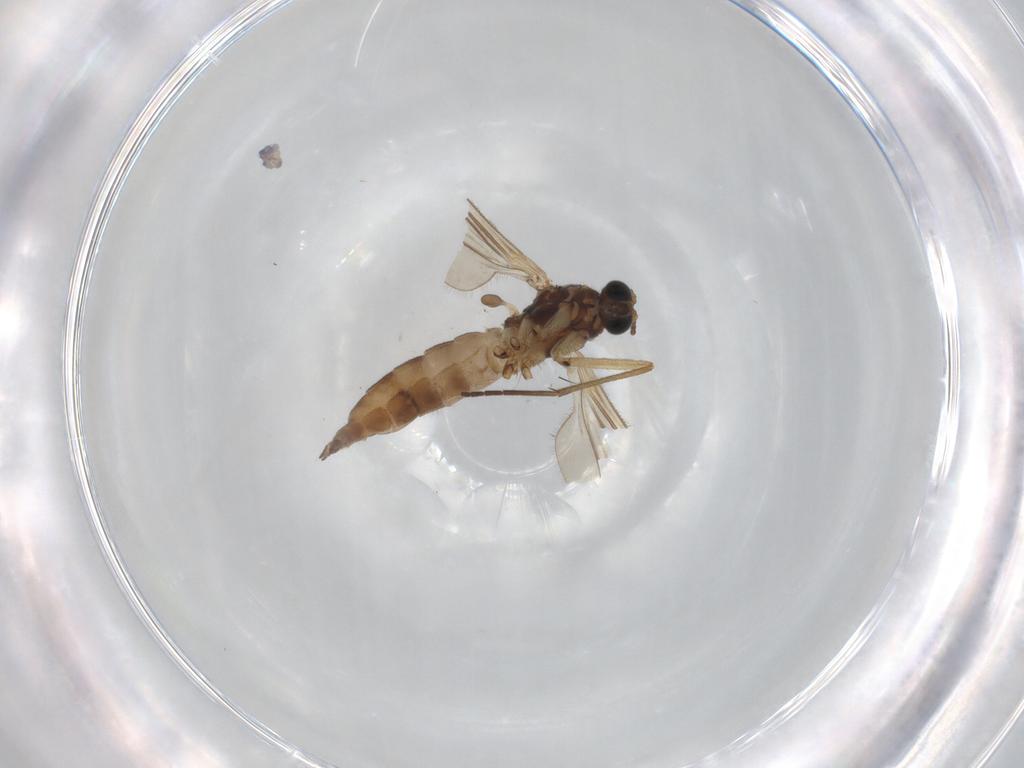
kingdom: Animalia
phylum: Arthropoda
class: Insecta
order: Diptera
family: Sciaridae
